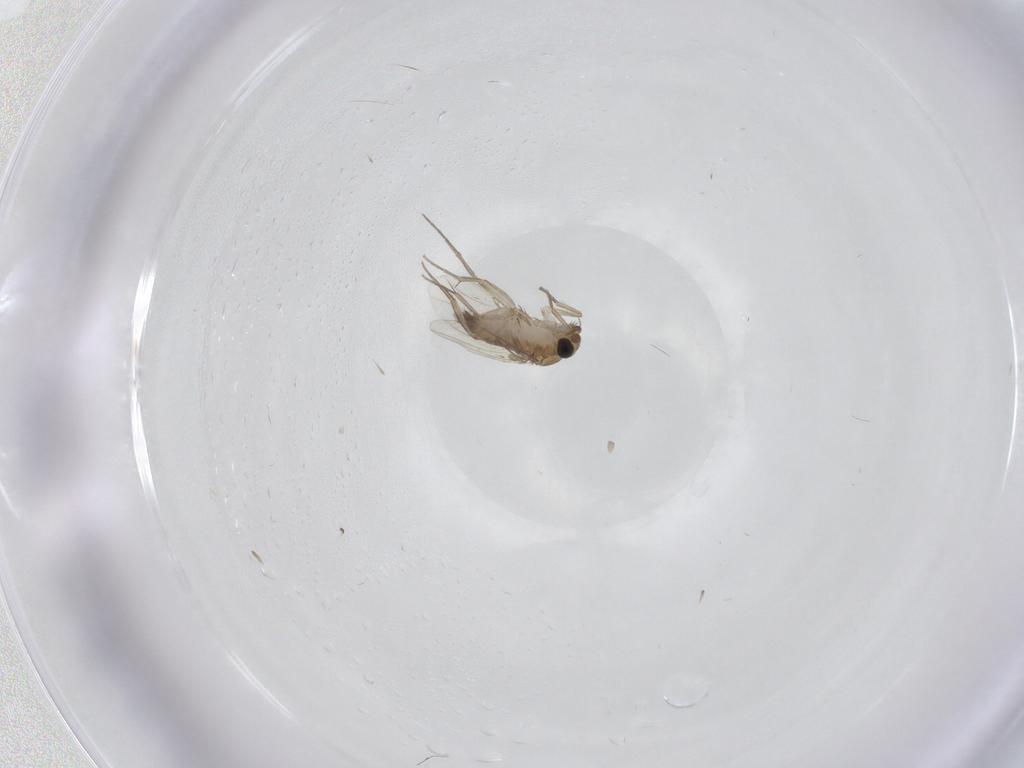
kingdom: Animalia
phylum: Arthropoda
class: Insecta
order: Diptera
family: Phoridae
